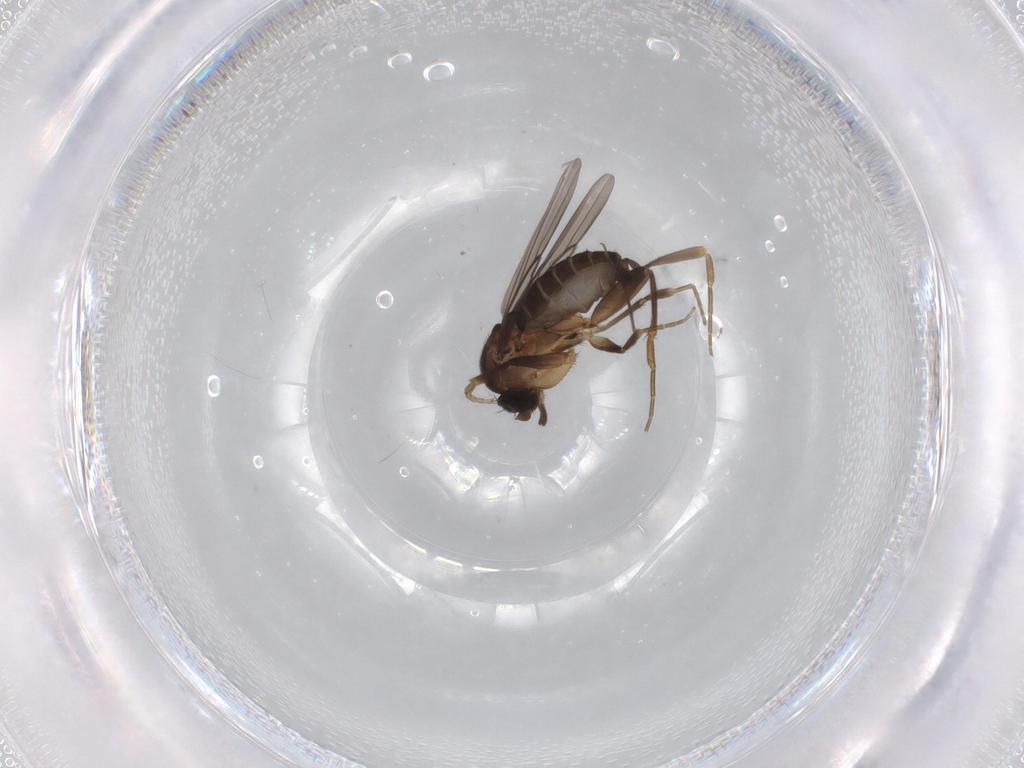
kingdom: Animalia
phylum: Arthropoda
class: Insecta
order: Diptera
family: Chironomidae
